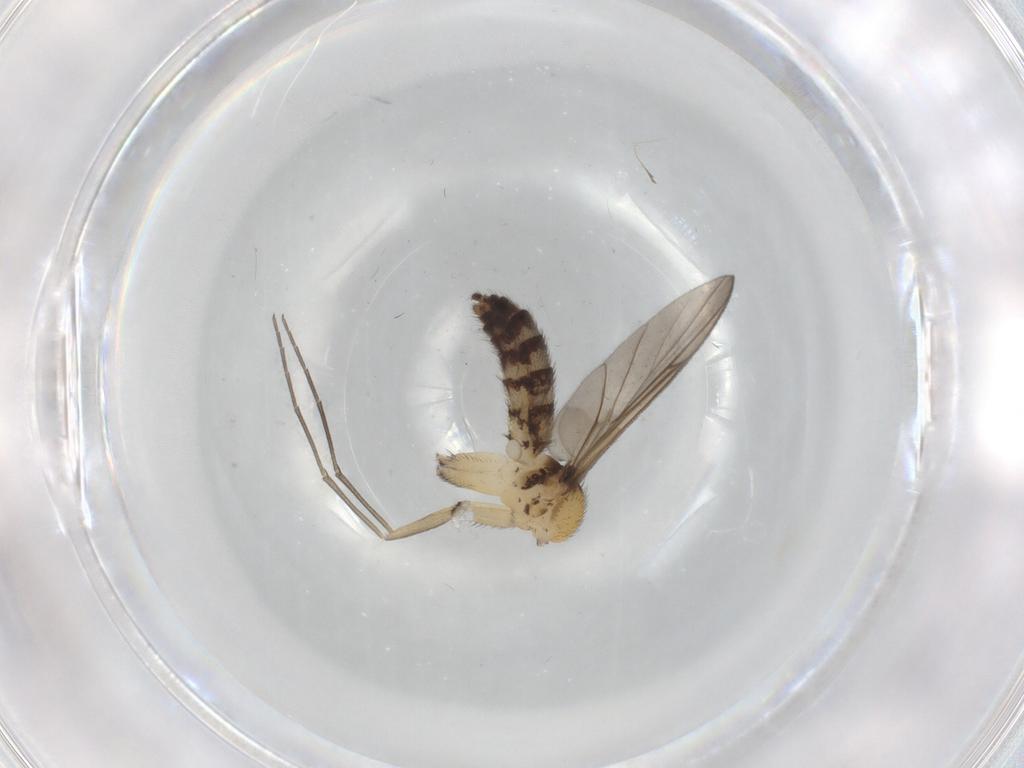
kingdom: Animalia
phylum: Arthropoda
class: Insecta
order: Diptera
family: Keroplatidae
